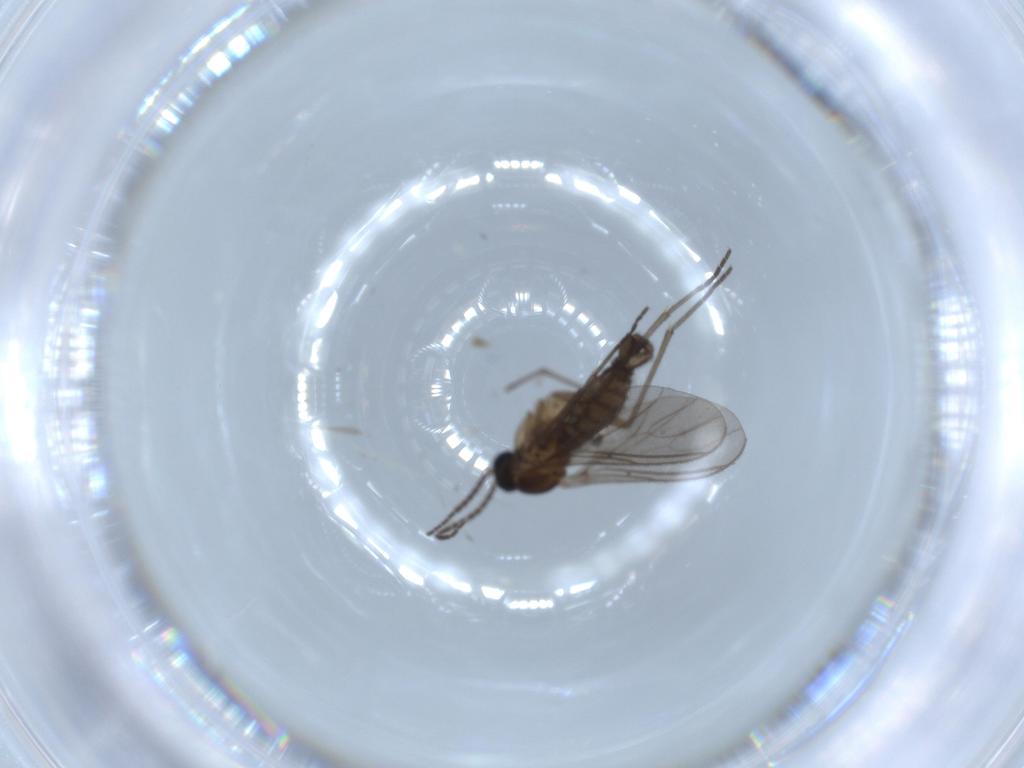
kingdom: Animalia
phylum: Arthropoda
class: Insecta
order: Diptera
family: Sciaridae
